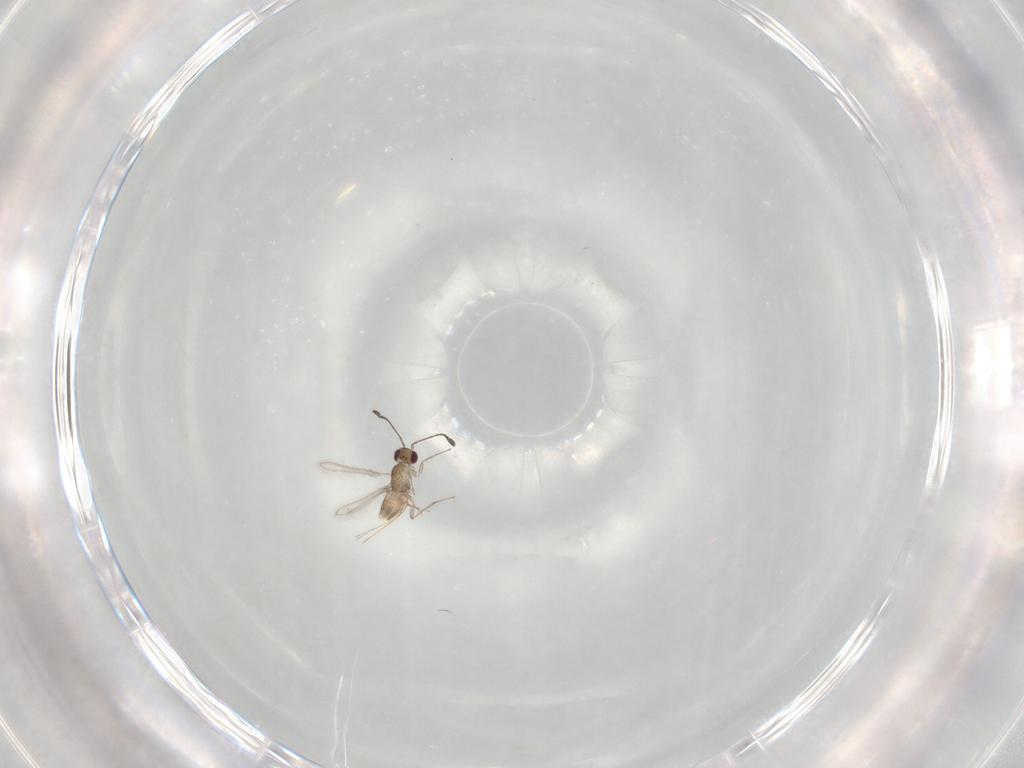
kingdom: Animalia
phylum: Arthropoda
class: Insecta
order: Hymenoptera
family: Mymaridae
